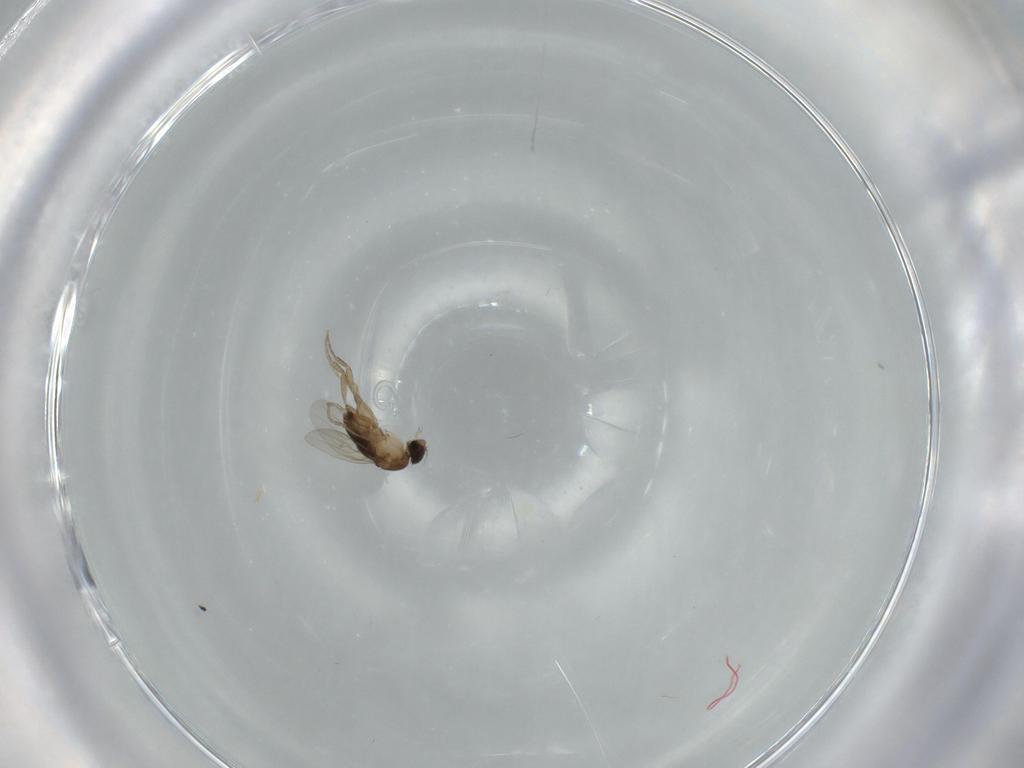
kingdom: Animalia
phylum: Arthropoda
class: Insecta
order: Diptera
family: Phoridae
